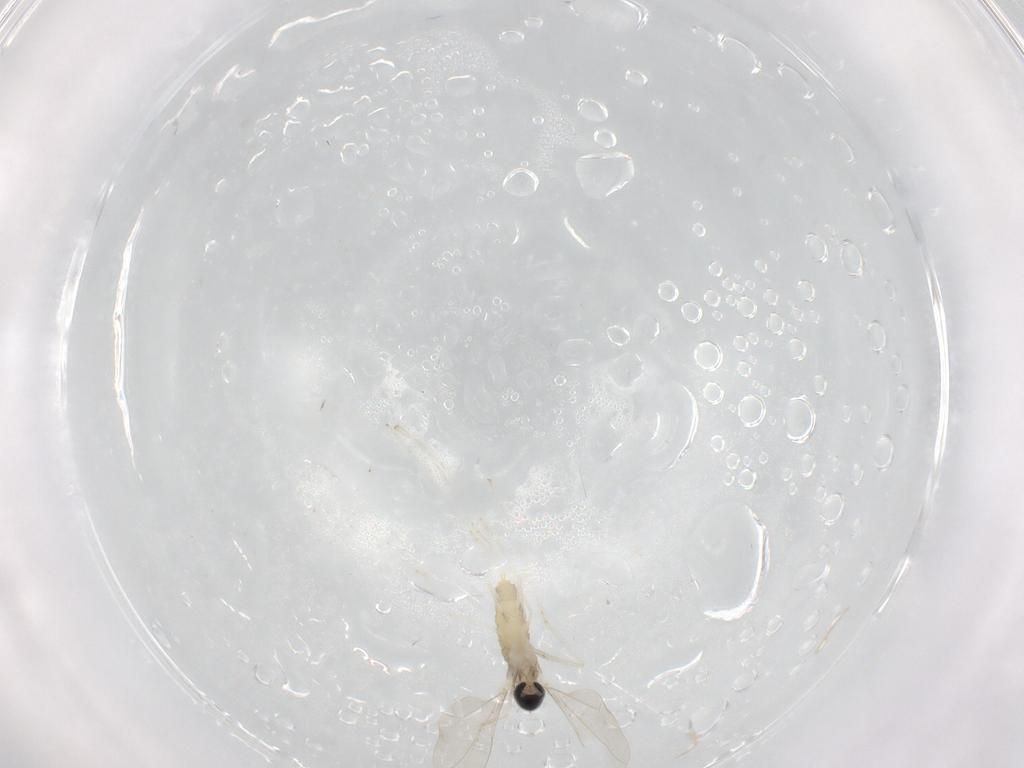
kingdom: Animalia
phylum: Arthropoda
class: Insecta
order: Diptera
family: Cecidomyiidae
